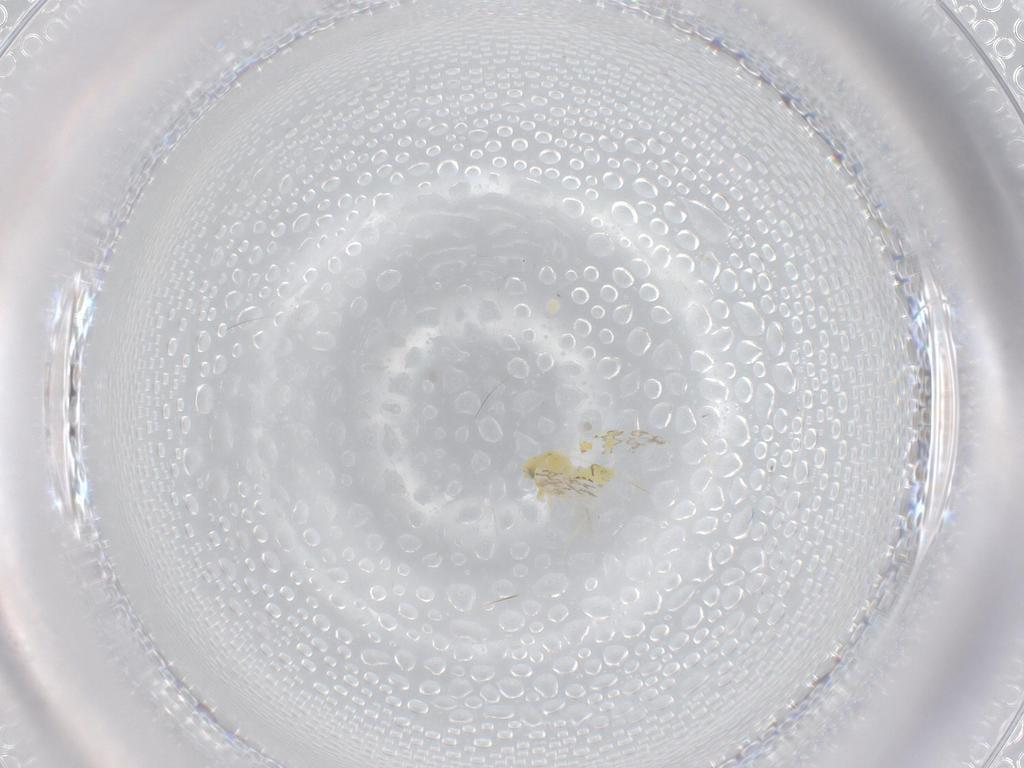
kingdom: Animalia
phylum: Arthropoda
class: Insecta
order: Hemiptera
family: Aleyrodidae
